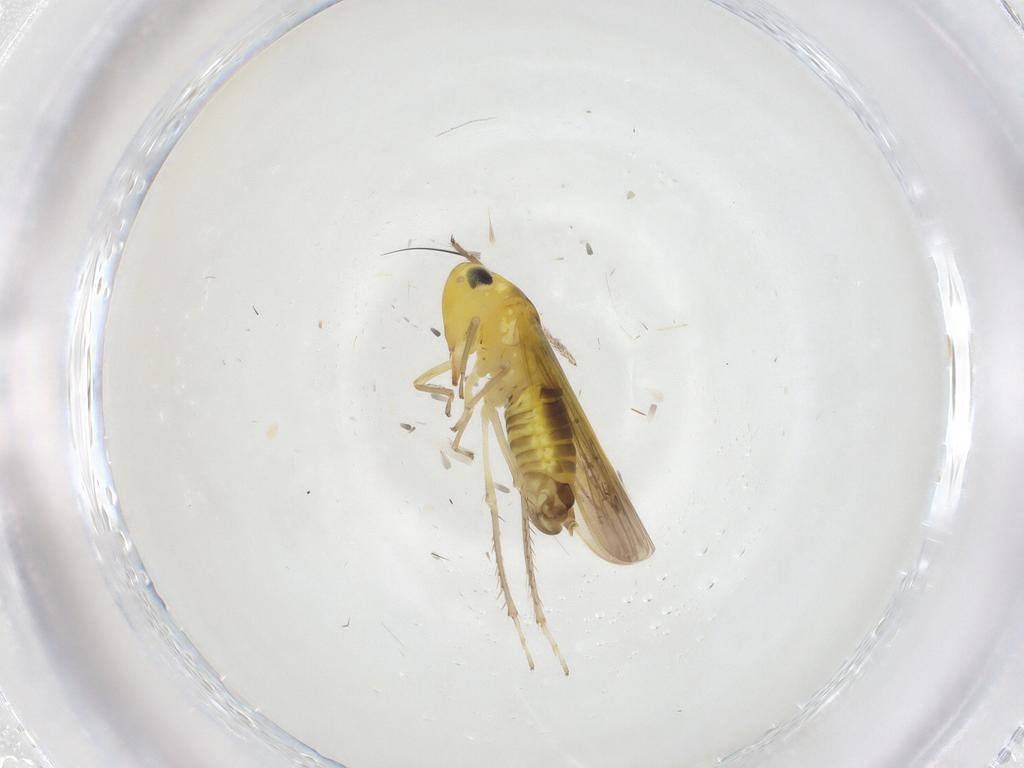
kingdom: Animalia
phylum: Arthropoda
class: Insecta
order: Hemiptera
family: Cicadellidae
